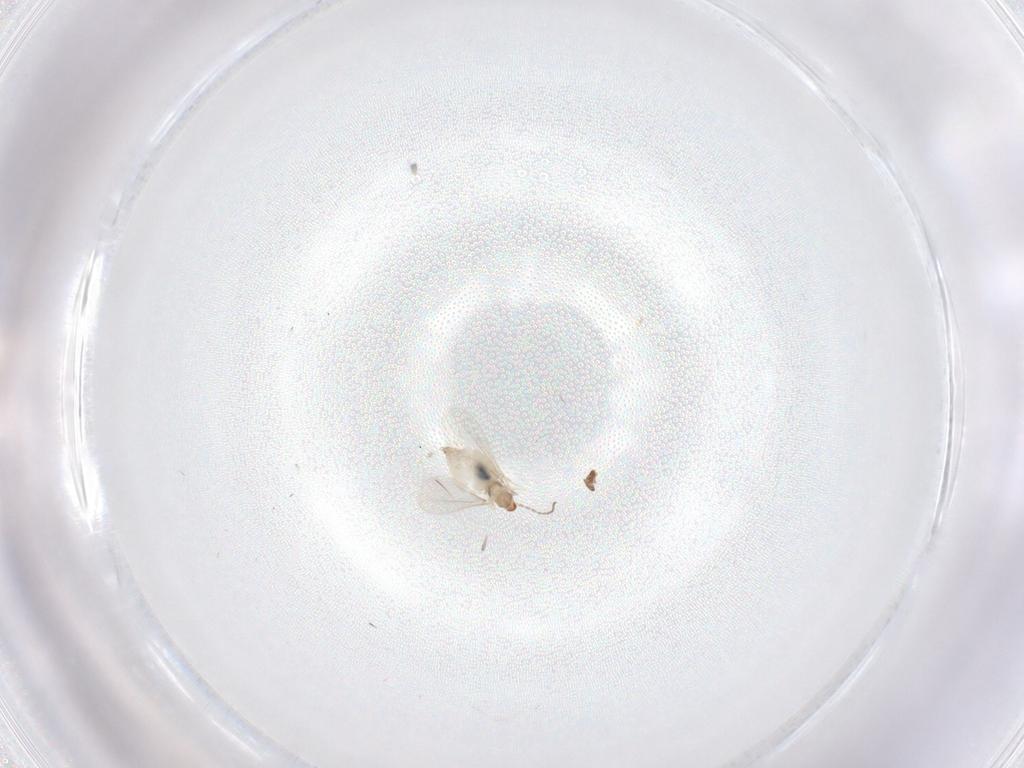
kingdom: Animalia
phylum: Arthropoda
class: Insecta
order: Diptera
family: Cecidomyiidae
